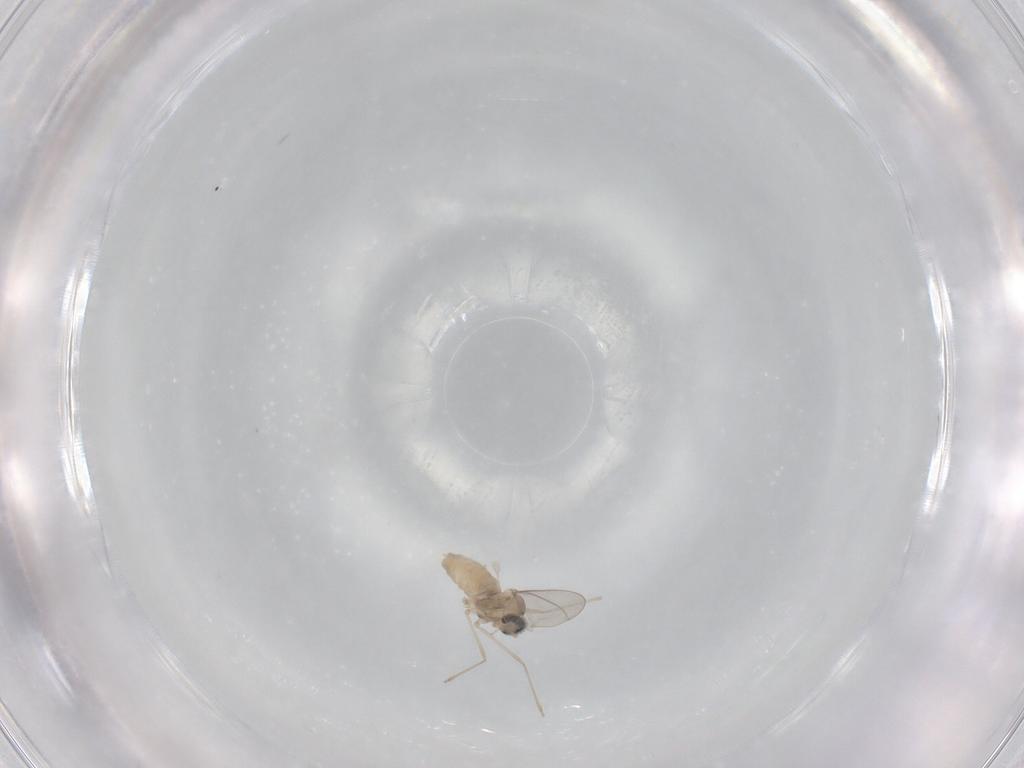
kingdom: Animalia
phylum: Arthropoda
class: Insecta
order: Diptera
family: Cecidomyiidae
